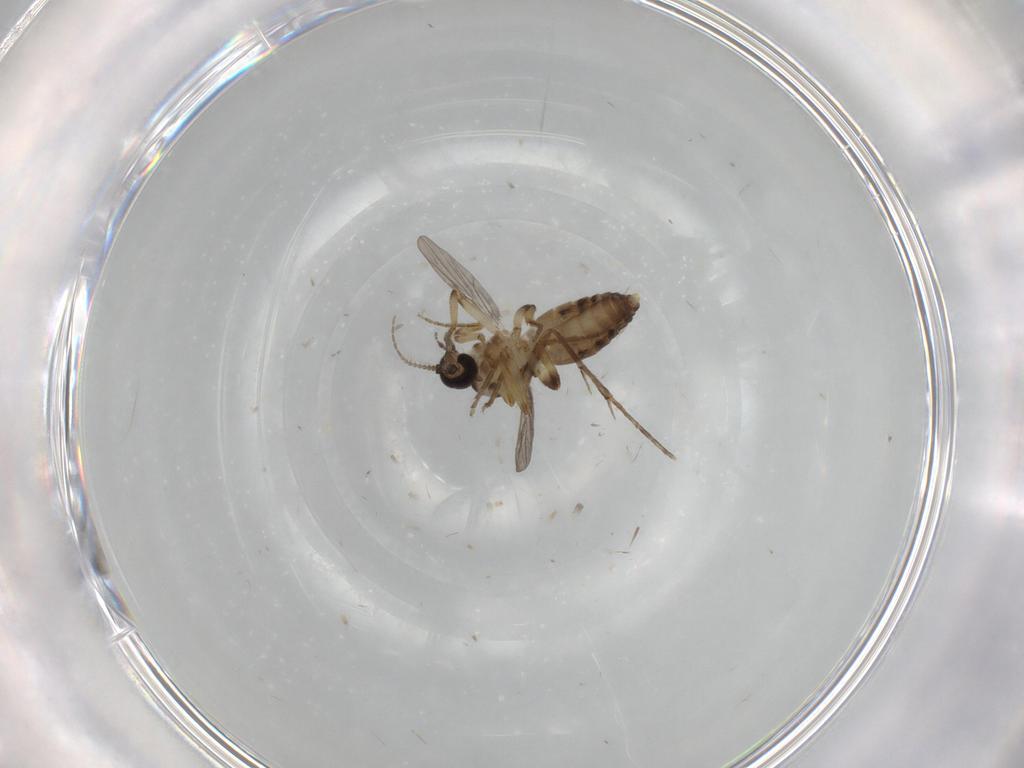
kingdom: Animalia
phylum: Arthropoda
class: Insecta
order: Diptera
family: Ceratopogonidae
